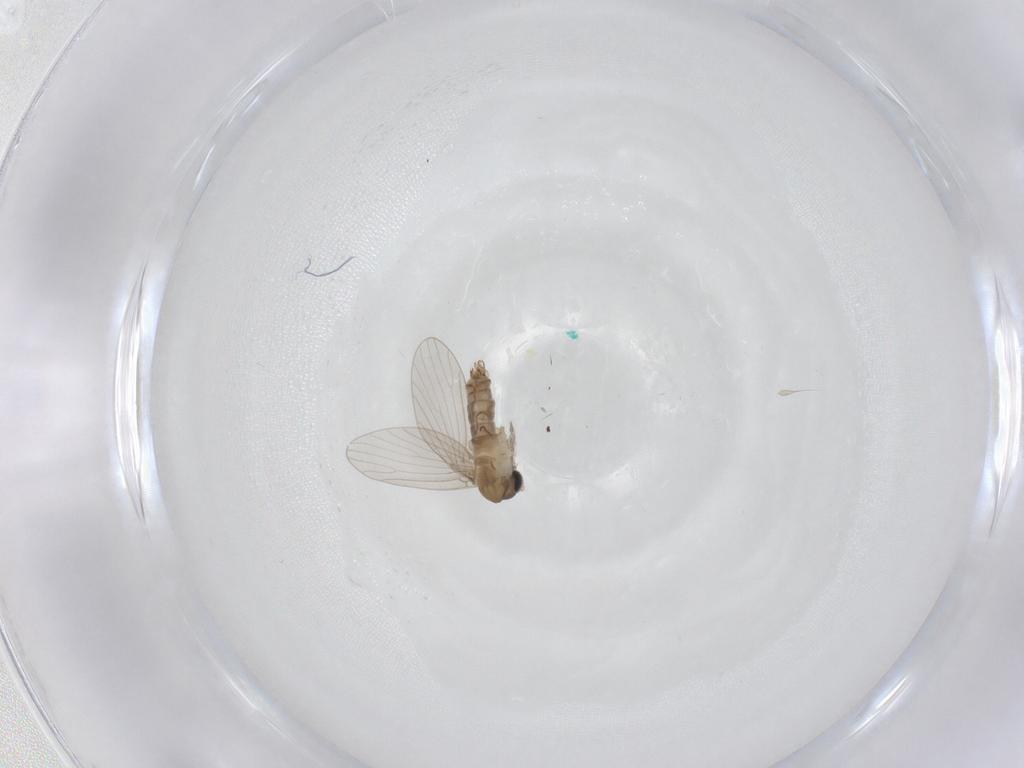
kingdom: Animalia
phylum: Arthropoda
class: Insecta
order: Diptera
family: Psychodidae
